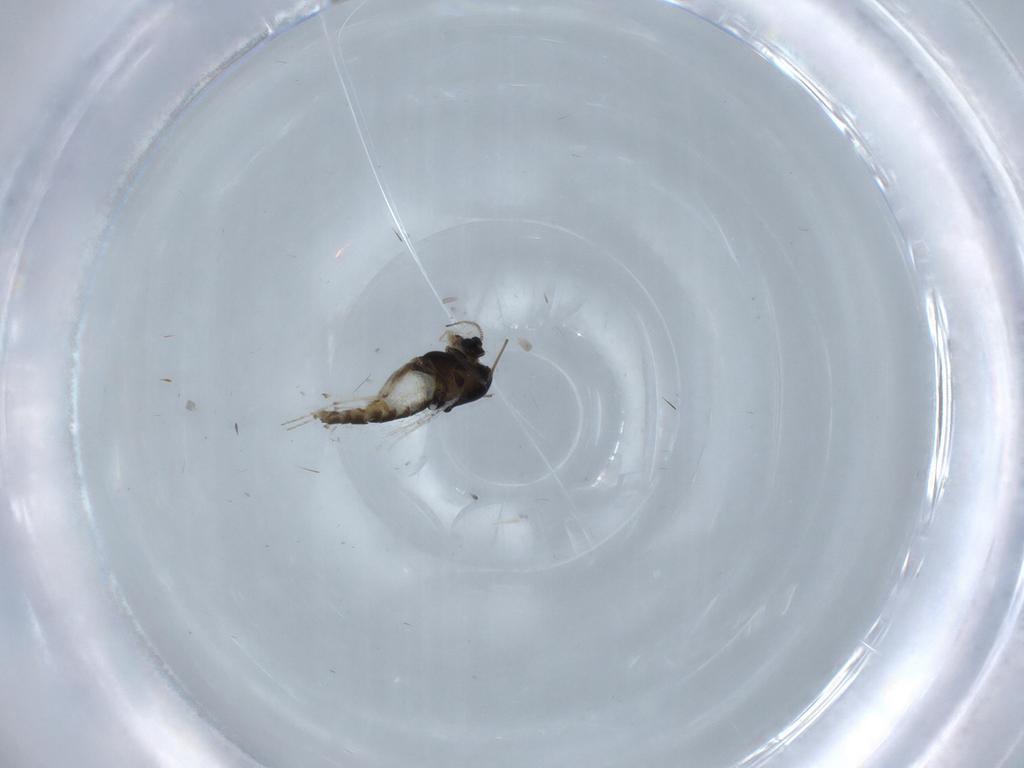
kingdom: Animalia
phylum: Arthropoda
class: Insecta
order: Diptera
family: Chironomidae
